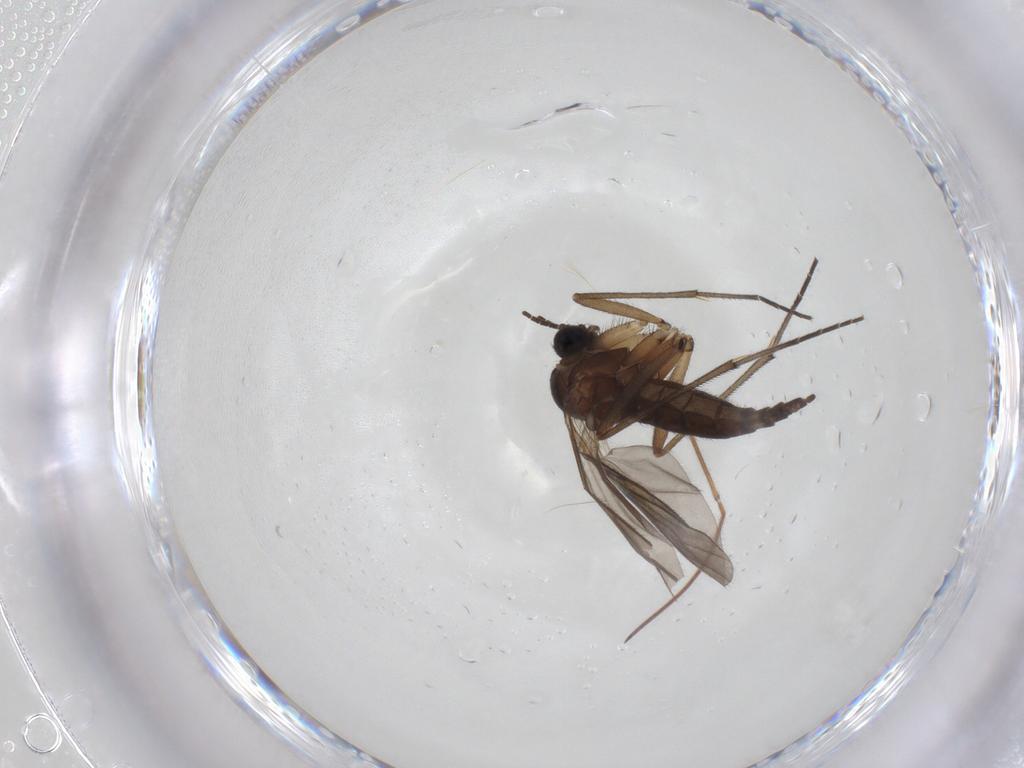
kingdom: Animalia
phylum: Arthropoda
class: Insecta
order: Diptera
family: Sciaridae
